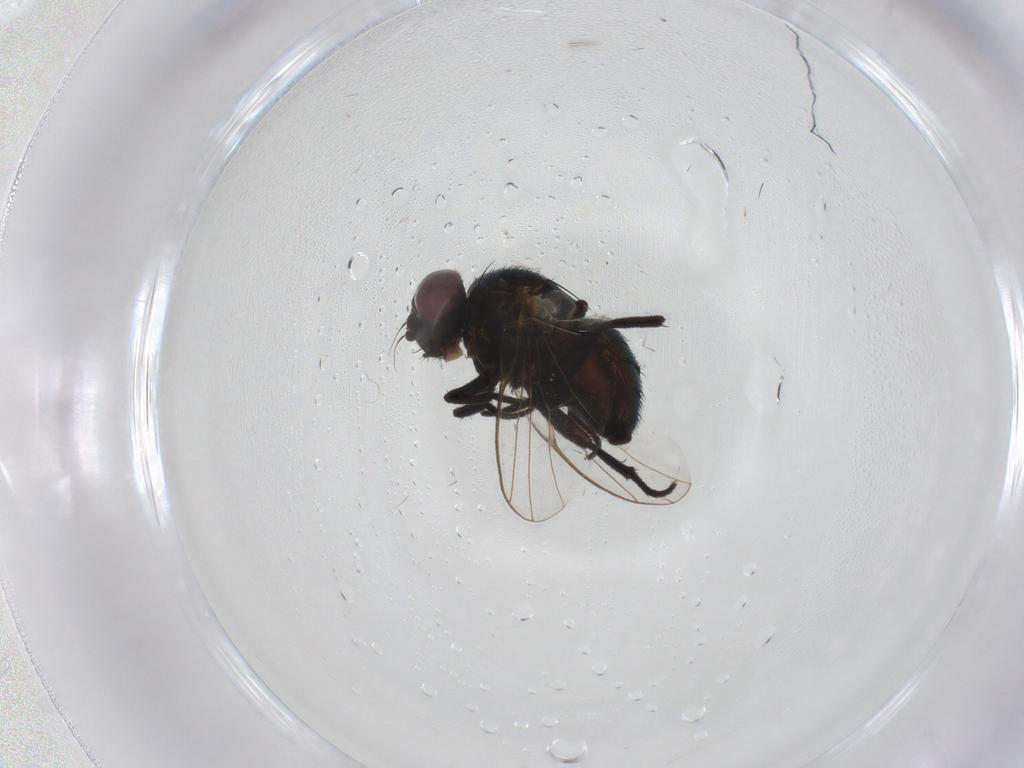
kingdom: Animalia
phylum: Arthropoda
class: Insecta
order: Diptera
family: Agromyzidae
